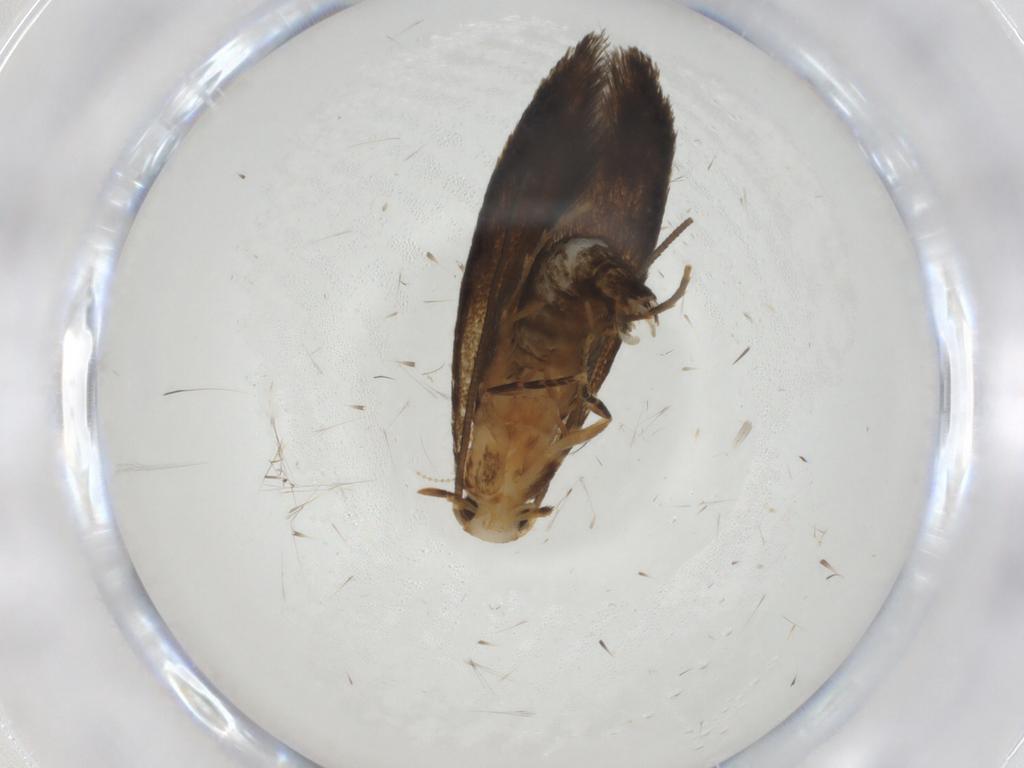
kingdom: Animalia
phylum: Arthropoda
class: Insecta
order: Lepidoptera
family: Tineidae
